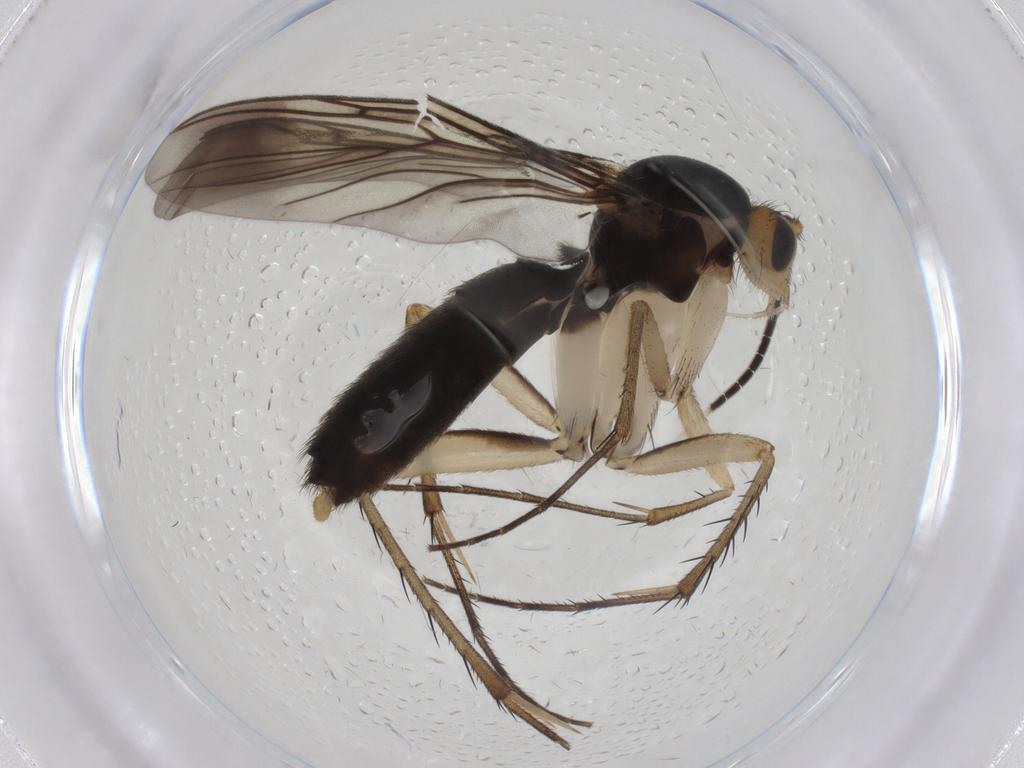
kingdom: Animalia
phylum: Arthropoda
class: Insecta
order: Diptera
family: Mycetophilidae
